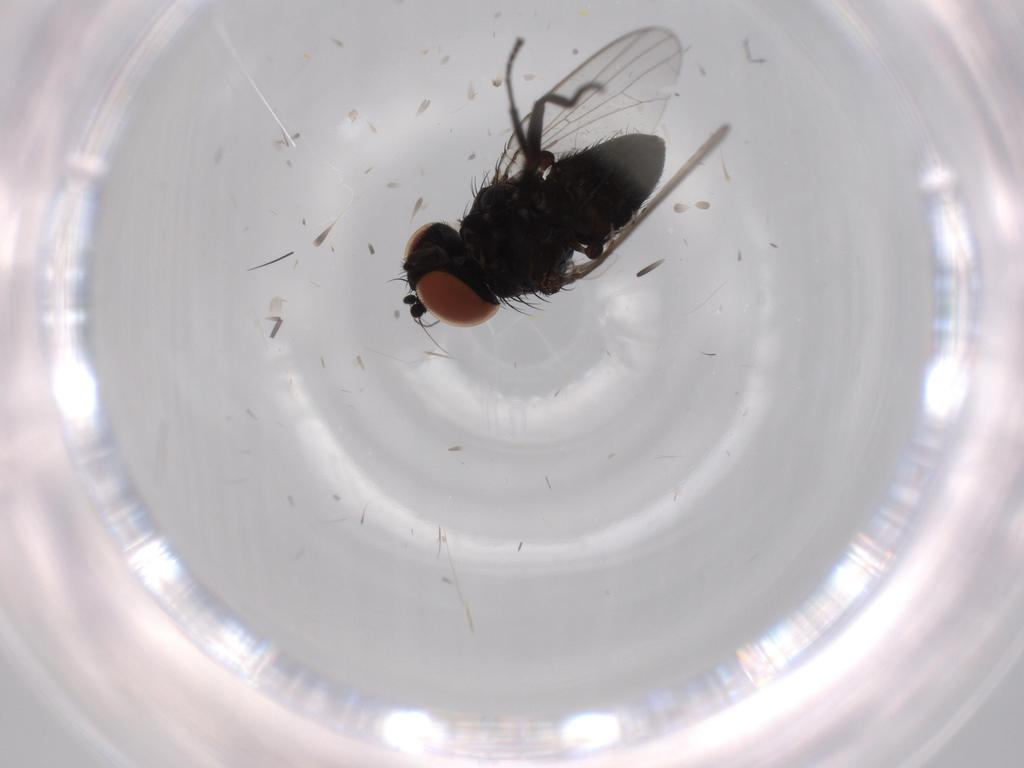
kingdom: Animalia
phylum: Arthropoda
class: Insecta
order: Diptera
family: Milichiidae
